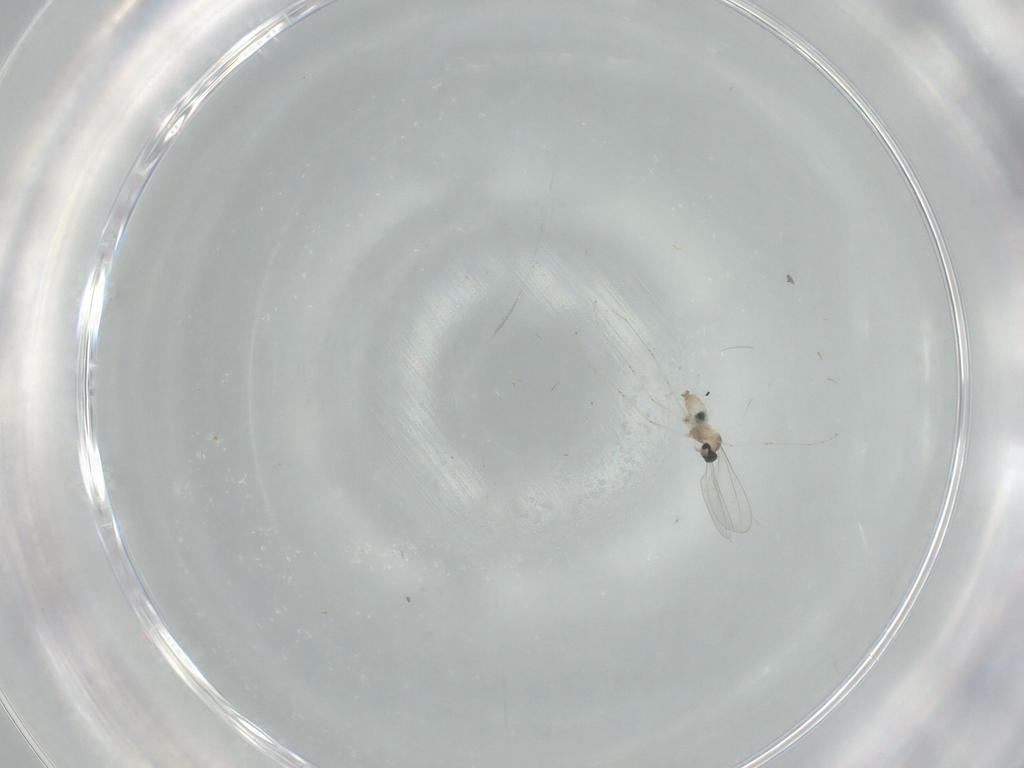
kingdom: Animalia
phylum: Arthropoda
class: Insecta
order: Diptera
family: Cecidomyiidae
